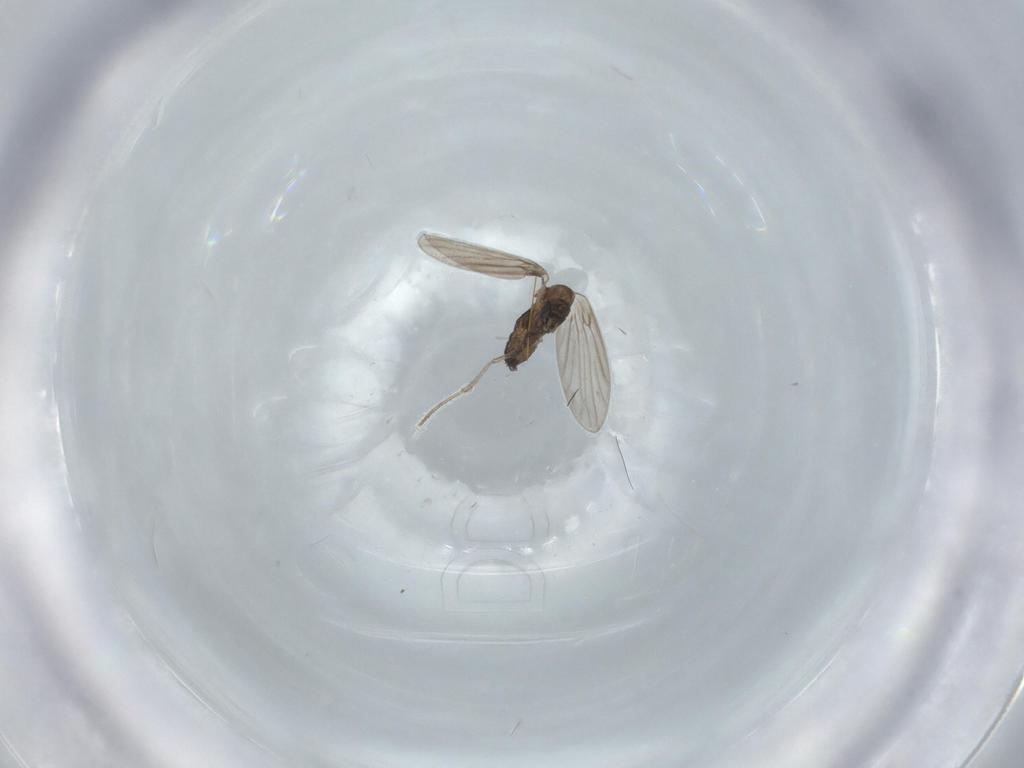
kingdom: Animalia
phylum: Arthropoda
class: Insecta
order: Diptera
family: Psychodidae
